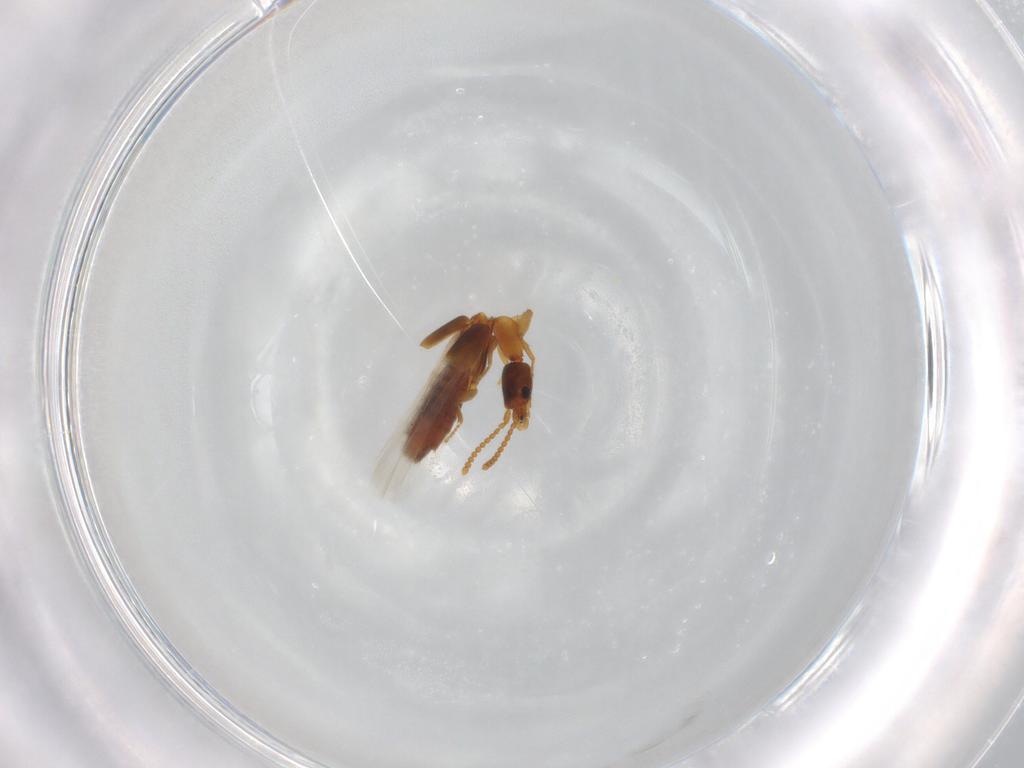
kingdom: Animalia
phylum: Arthropoda
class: Insecta
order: Coleoptera
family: Staphylinidae
